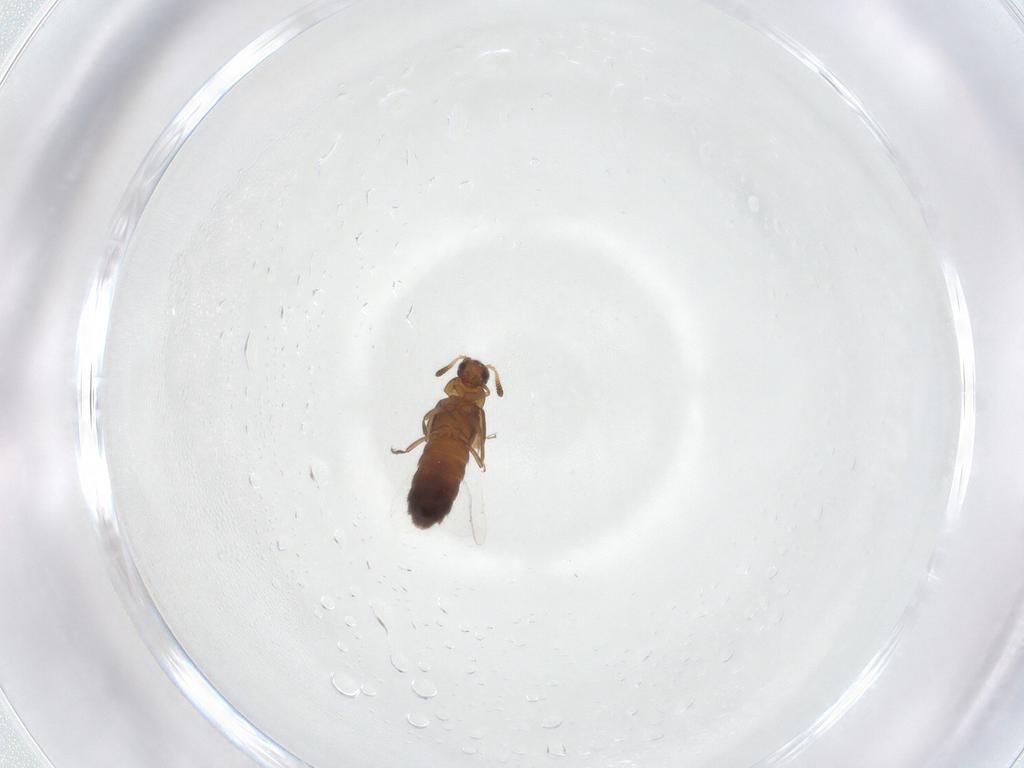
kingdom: Animalia
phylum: Arthropoda
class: Insecta
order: Coleoptera
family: Staphylinidae
